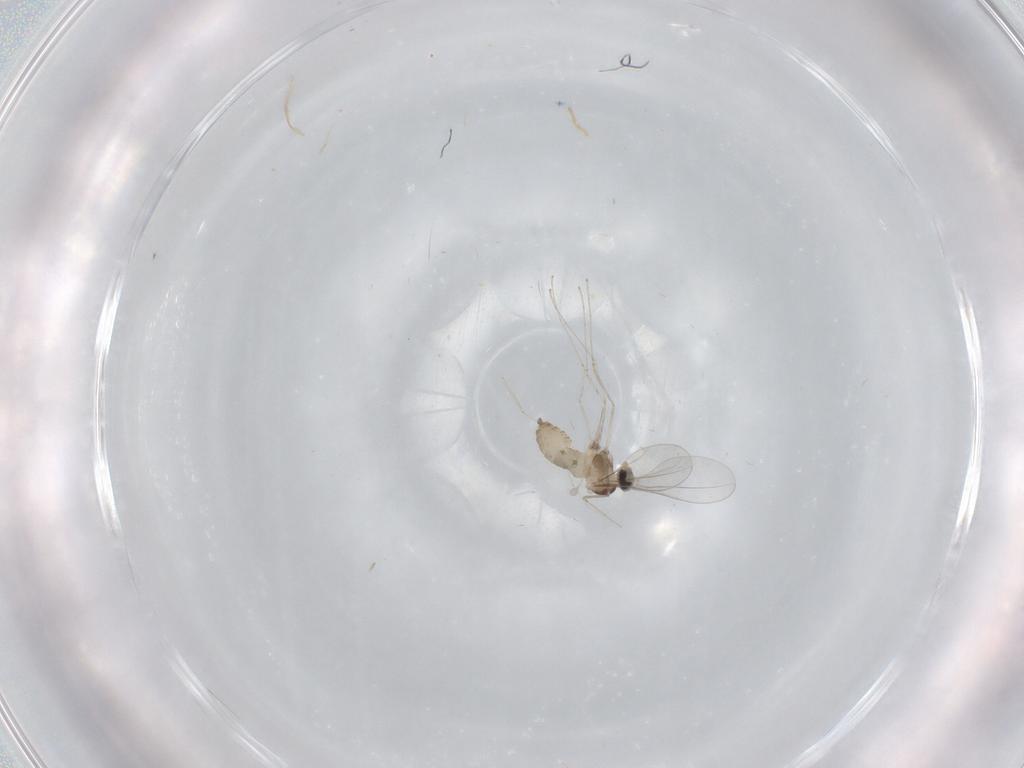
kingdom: Animalia
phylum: Arthropoda
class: Insecta
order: Diptera
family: Cecidomyiidae
